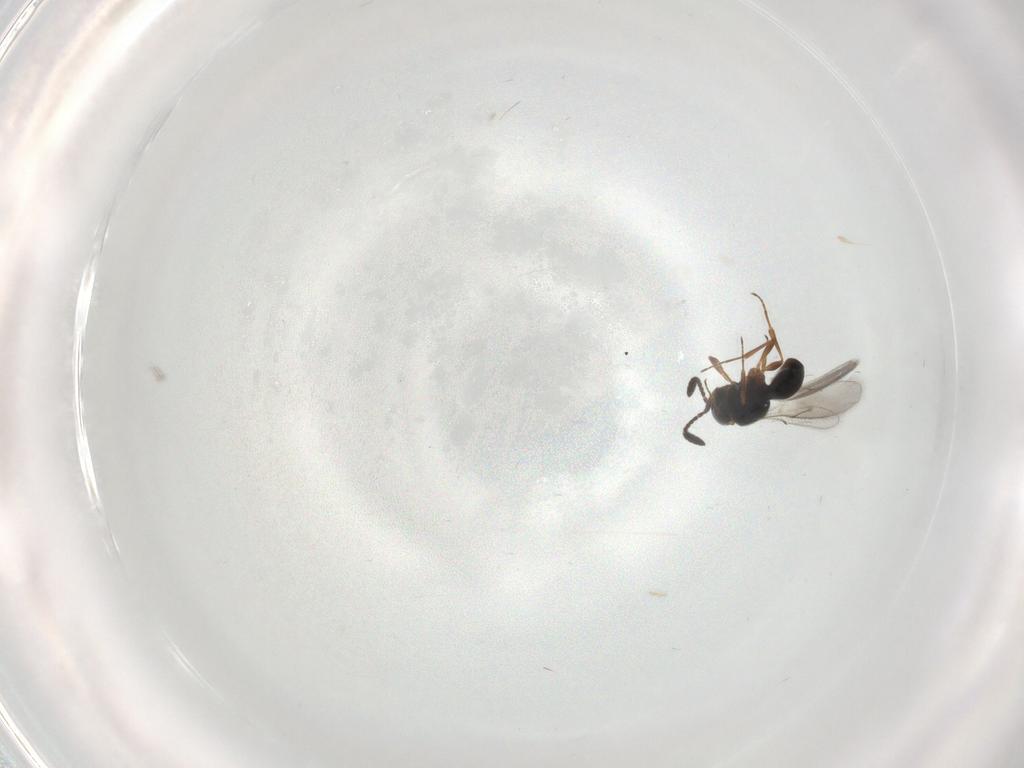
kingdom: Animalia
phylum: Arthropoda
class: Insecta
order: Hymenoptera
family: Scelionidae
